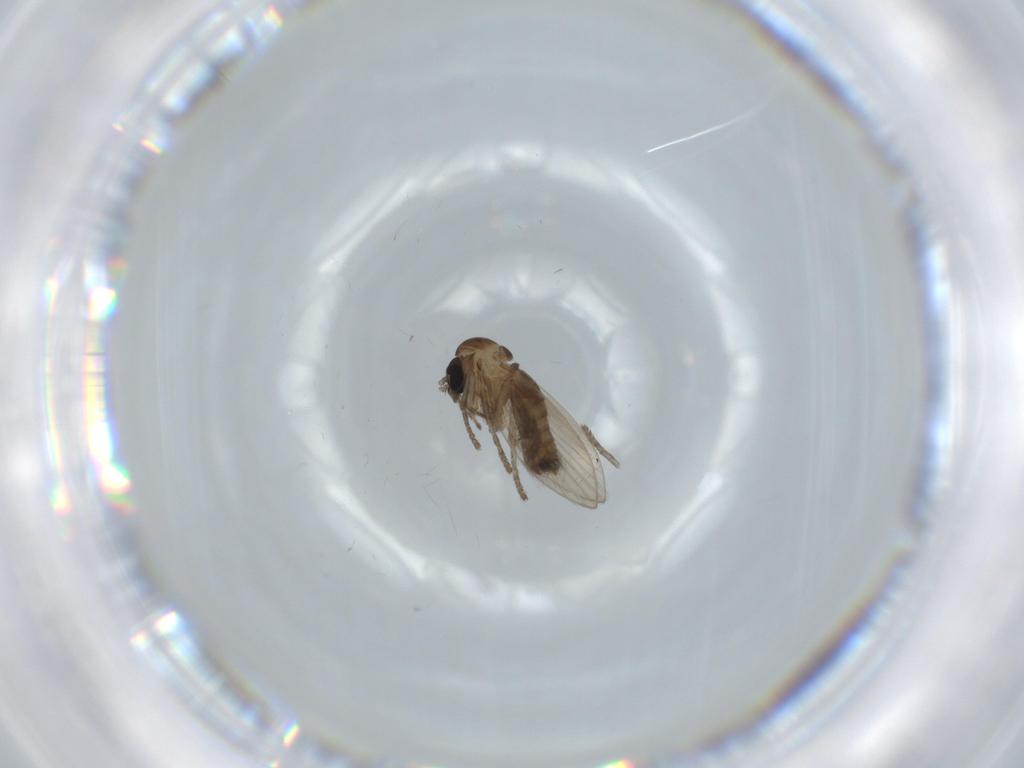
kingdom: Animalia
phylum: Arthropoda
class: Insecta
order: Diptera
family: Psychodidae
